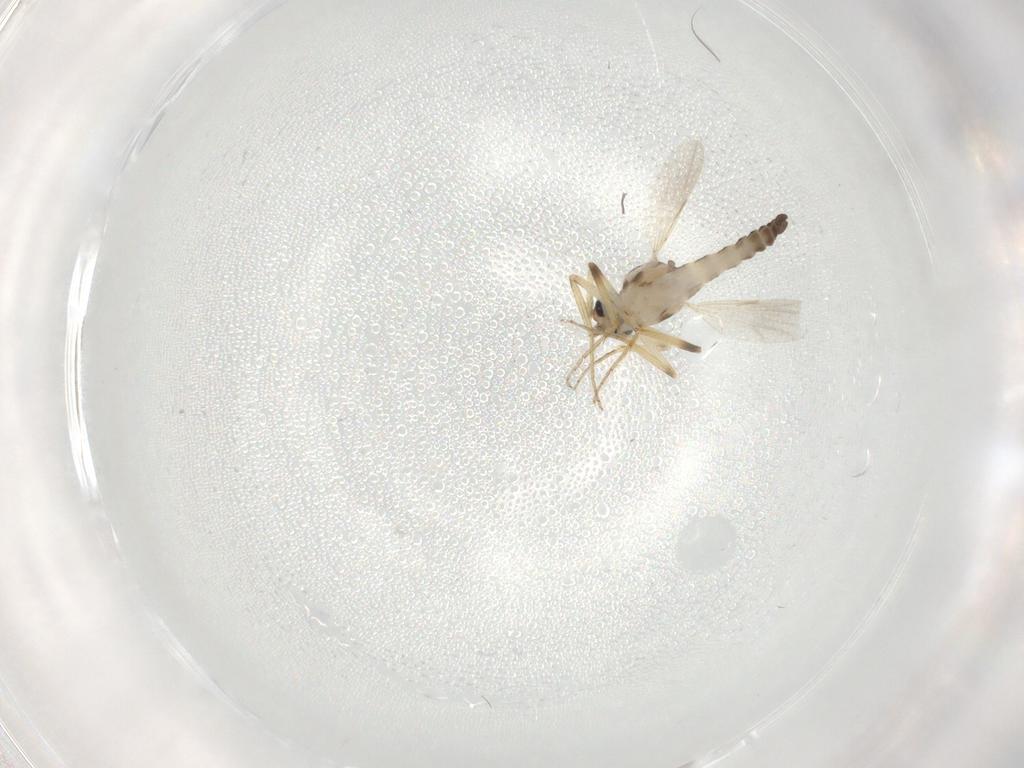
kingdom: Animalia
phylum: Arthropoda
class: Insecta
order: Diptera
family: Ceratopogonidae
